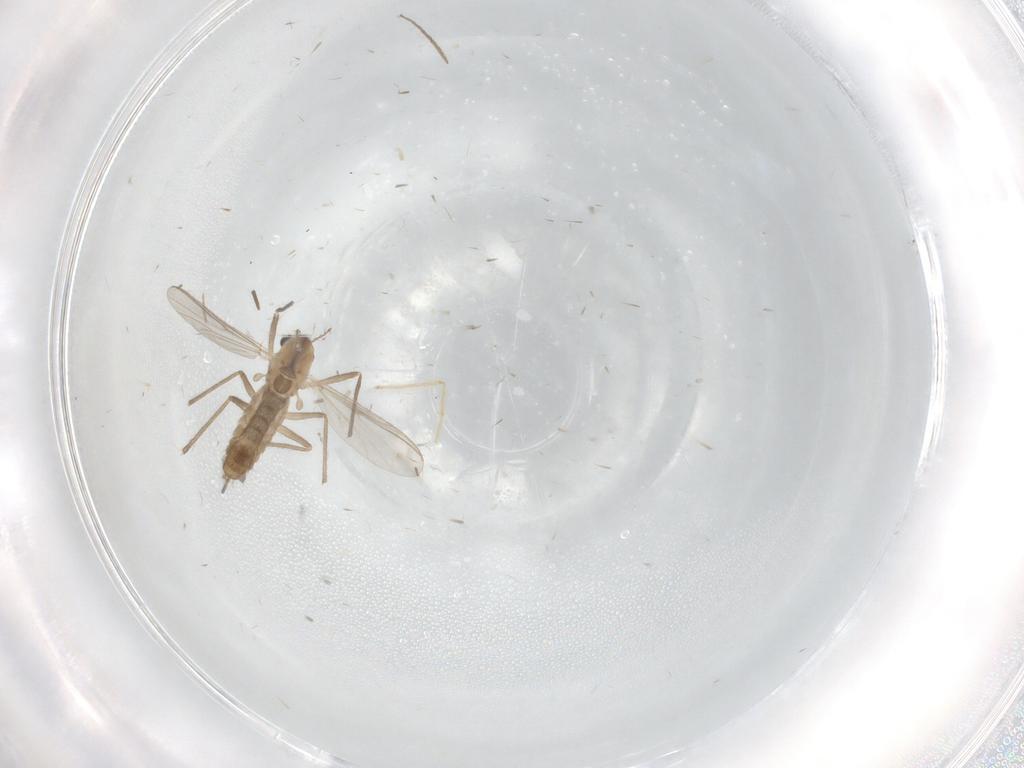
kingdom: Animalia
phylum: Arthropoda
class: Insecta
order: Diptera
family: Chironomidae
